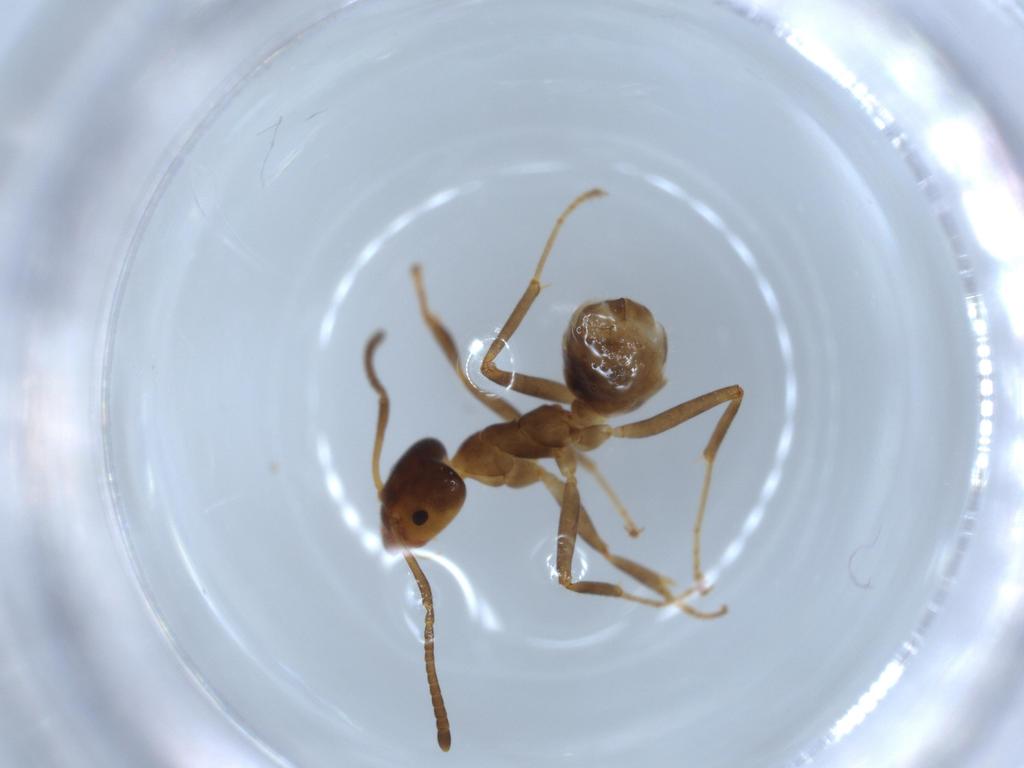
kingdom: Animalia
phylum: Arthropoda
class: Insecta
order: Hymenoptera
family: Formicidae
